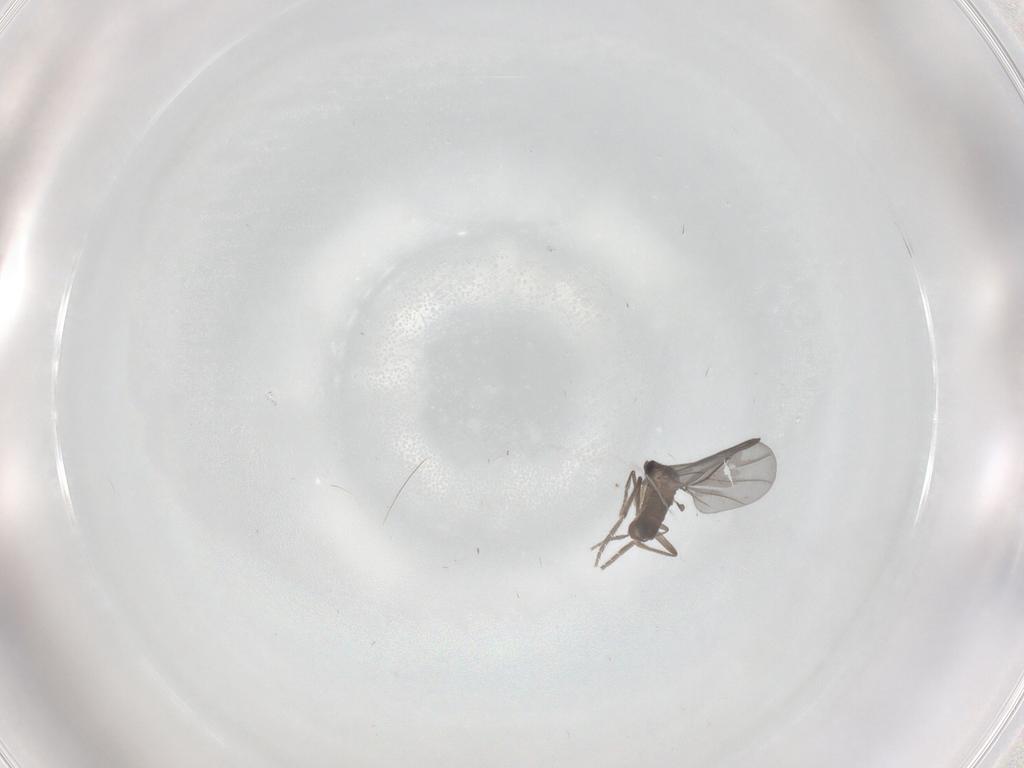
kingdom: Animalia
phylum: Arthropoda
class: Insecta
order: Diptera
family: Phoridae
